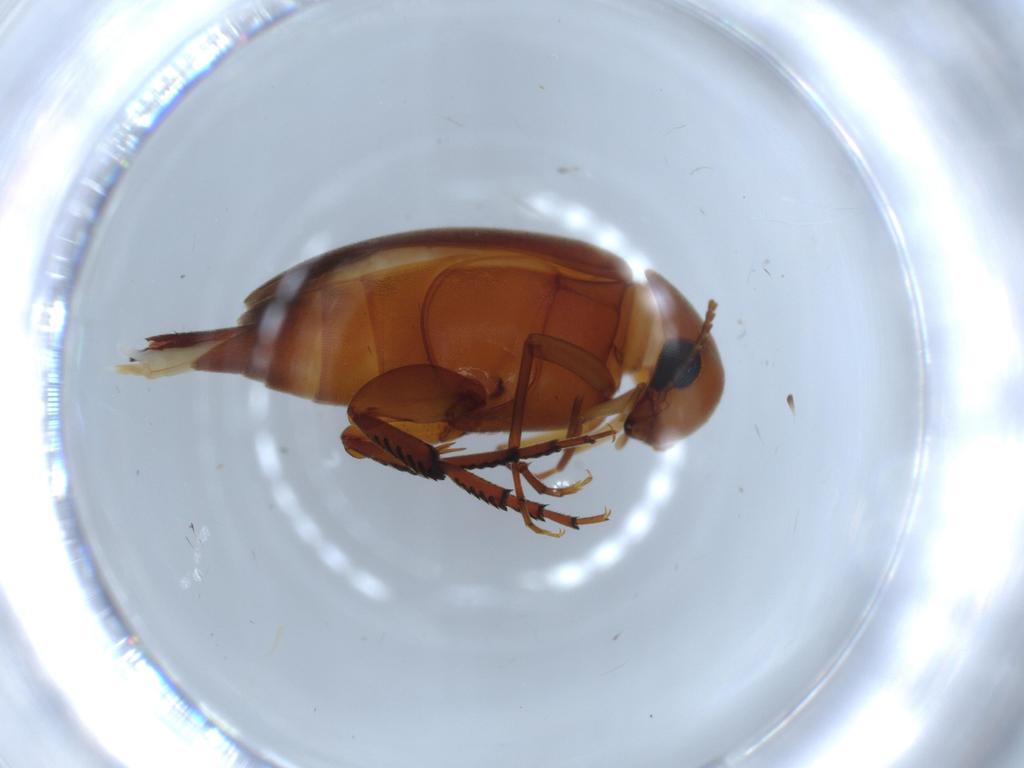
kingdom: Animalia
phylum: Arthropoda
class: Insecta
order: Coleoptera
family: Mordellidae
